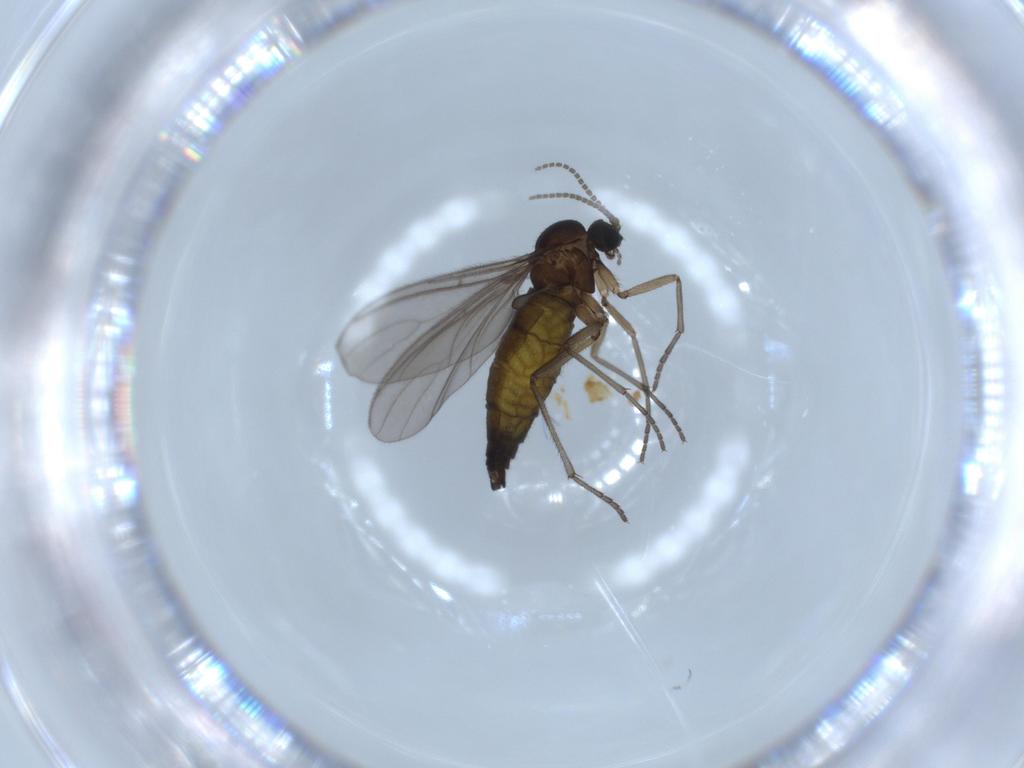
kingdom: Animalia
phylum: Arthropoda
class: Insecta
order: Diptera
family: Sciaridae
